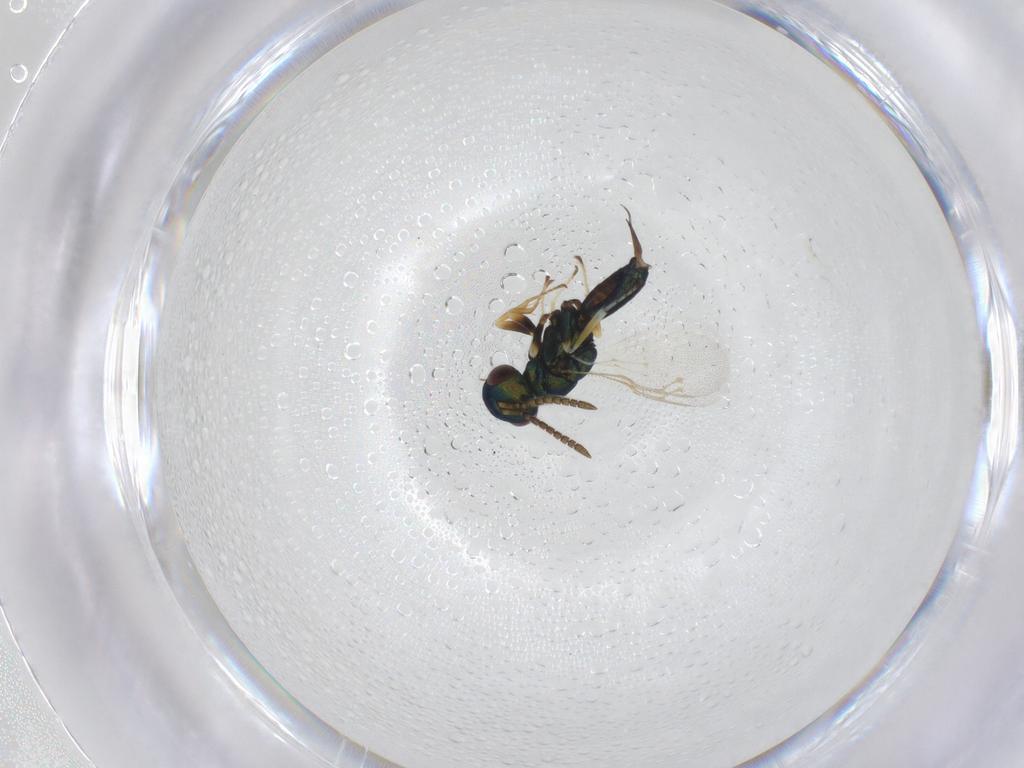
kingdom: Animalia
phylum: Arthropoda
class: Insecta
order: Hymenoptera
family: Pteromalidae
